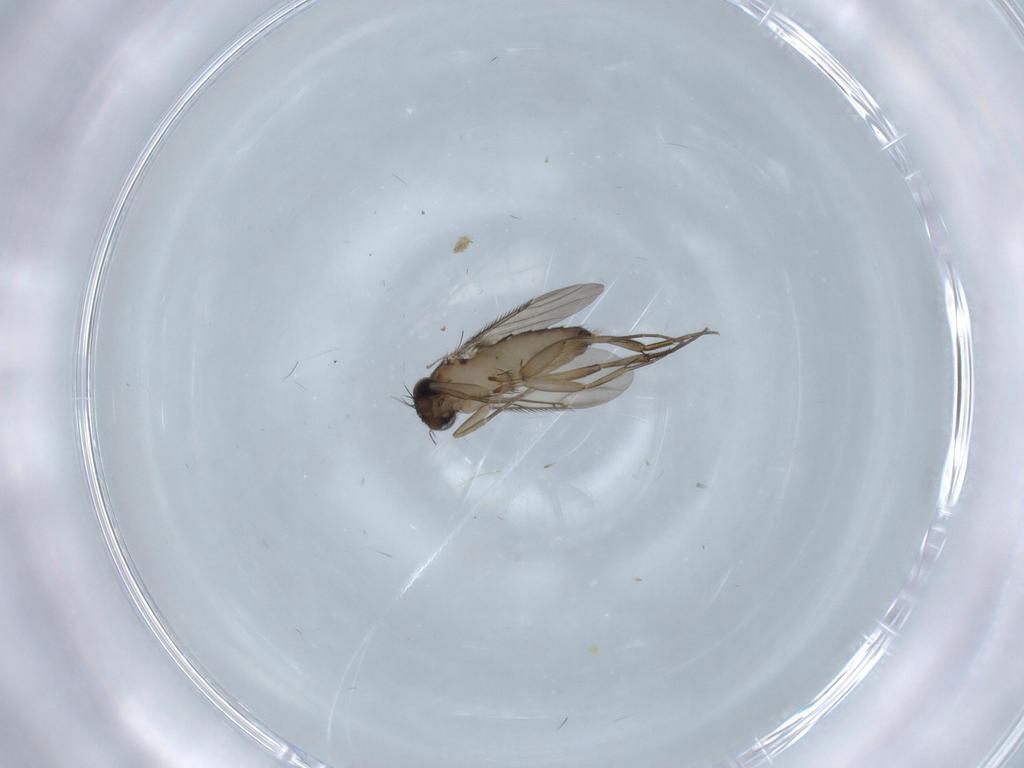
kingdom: Animalia
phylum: Arthropoda
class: Insecta
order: Diptera
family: Phoridae
